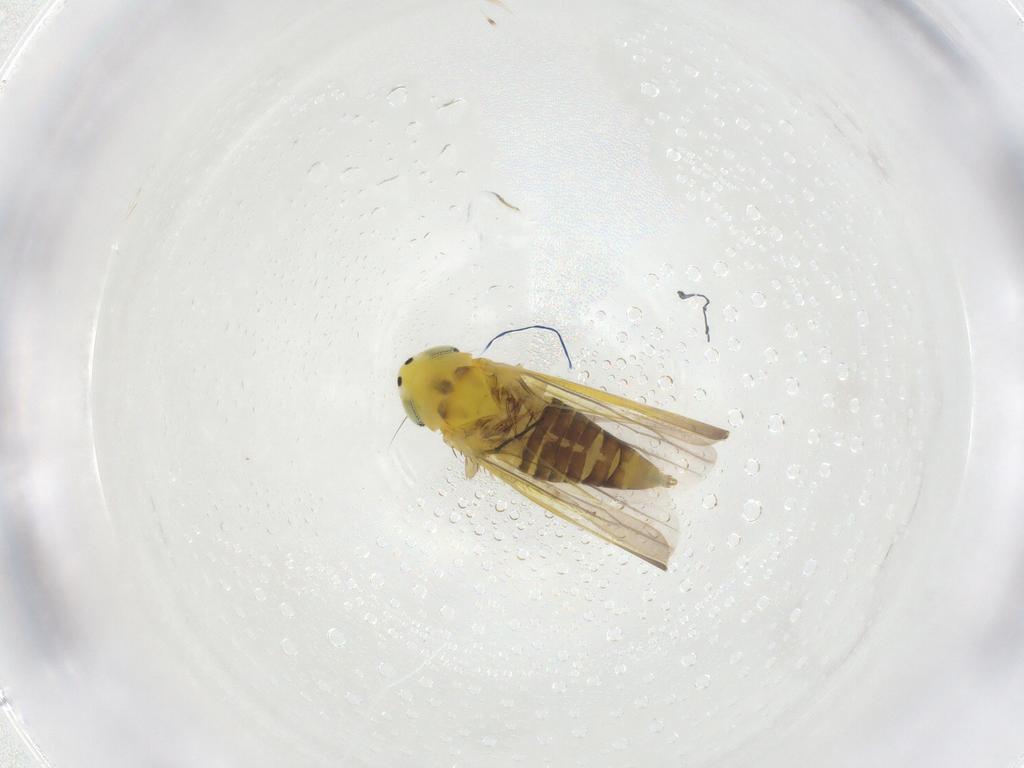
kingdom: Animalia
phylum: Arthropoda
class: Insecta
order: Hemiptera
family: Cicadellidae
